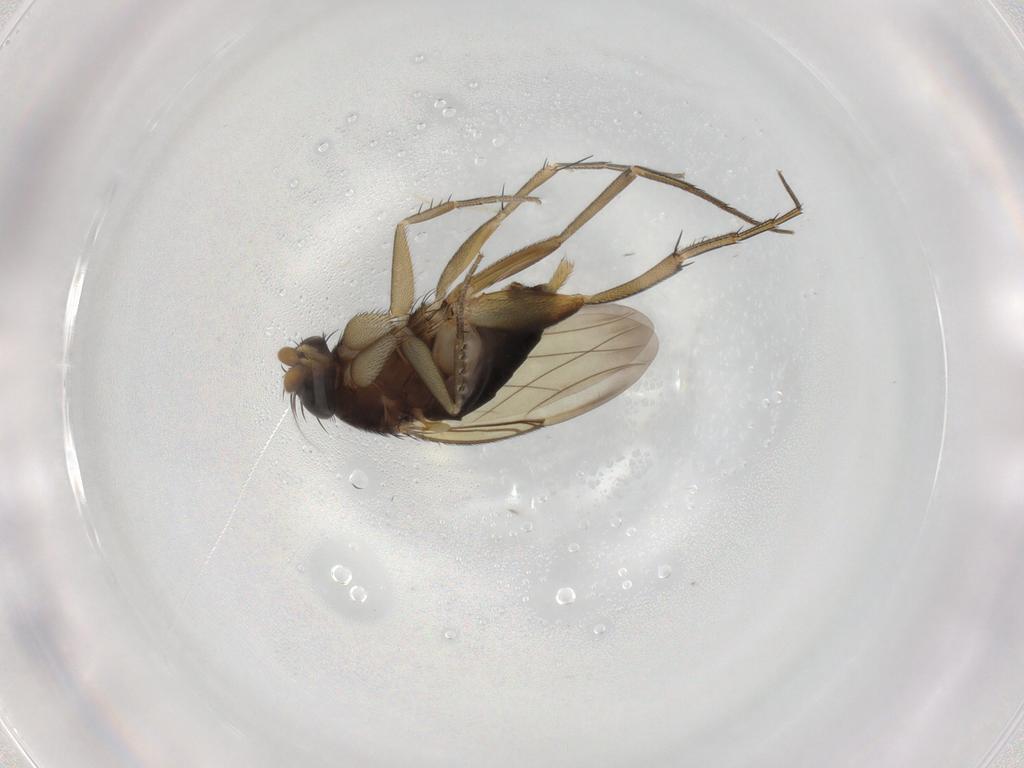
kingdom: Animalia
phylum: Arthropoda
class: Insecta
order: Diptera
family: Phoridae
